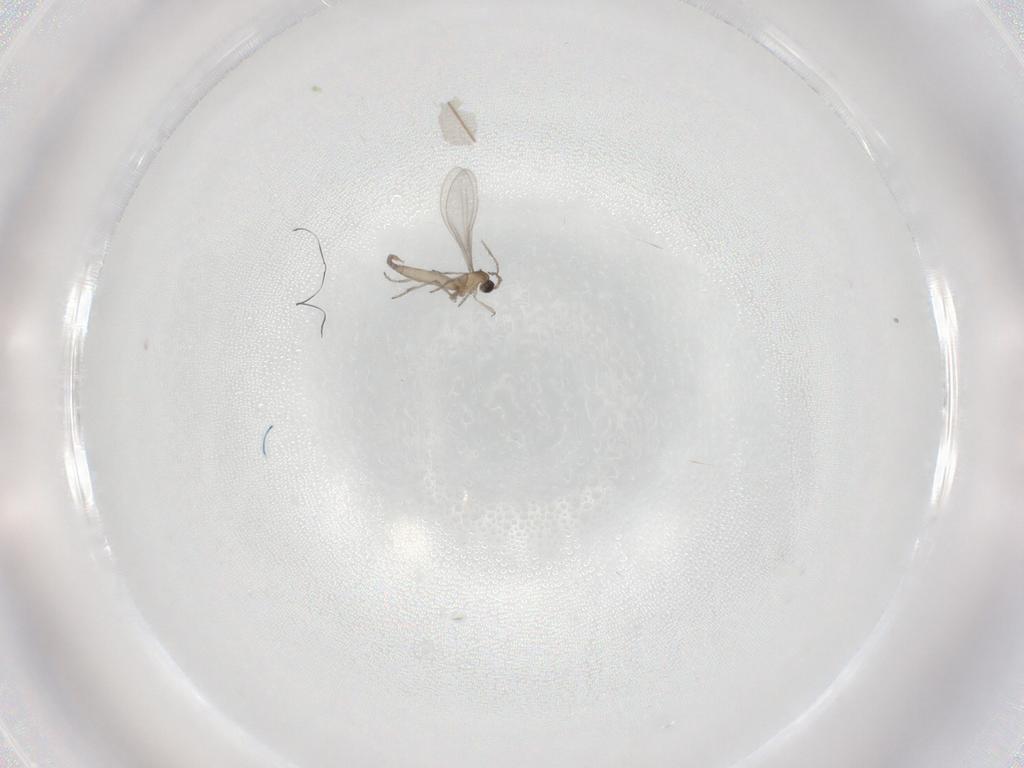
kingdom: Animalia
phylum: Arthropoda
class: Insecta
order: Diptera
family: Cecidomyiidae
